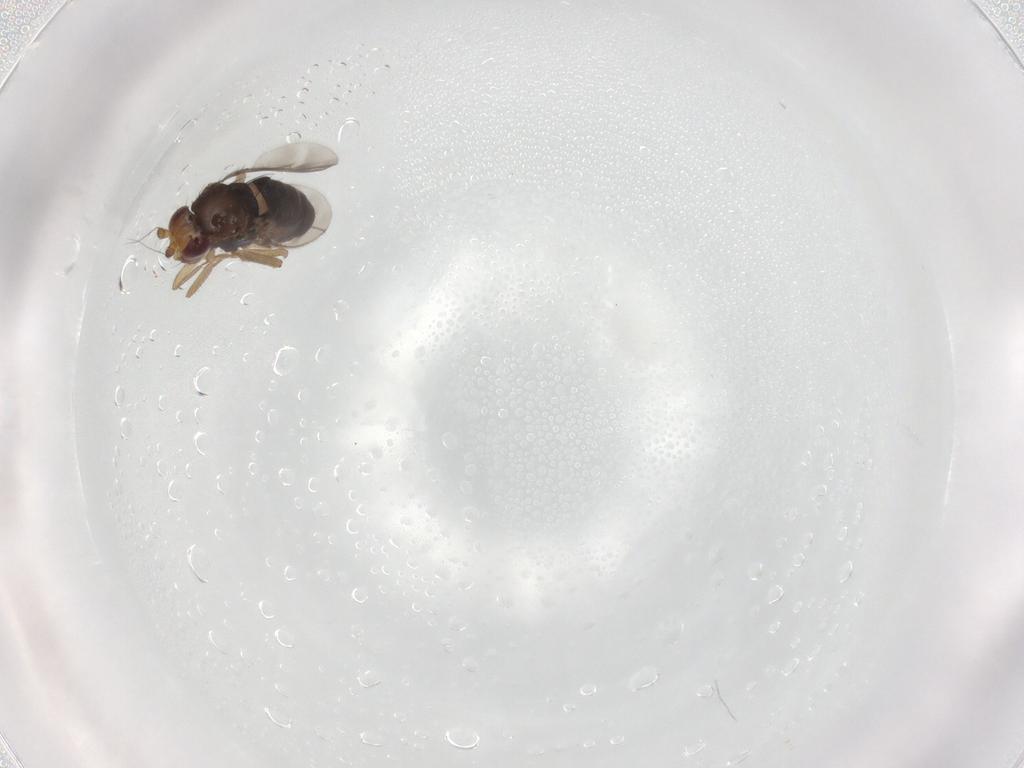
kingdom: Animalia
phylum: Arthropoda
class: Insecta
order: Diptera
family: Sphaeroceridae
